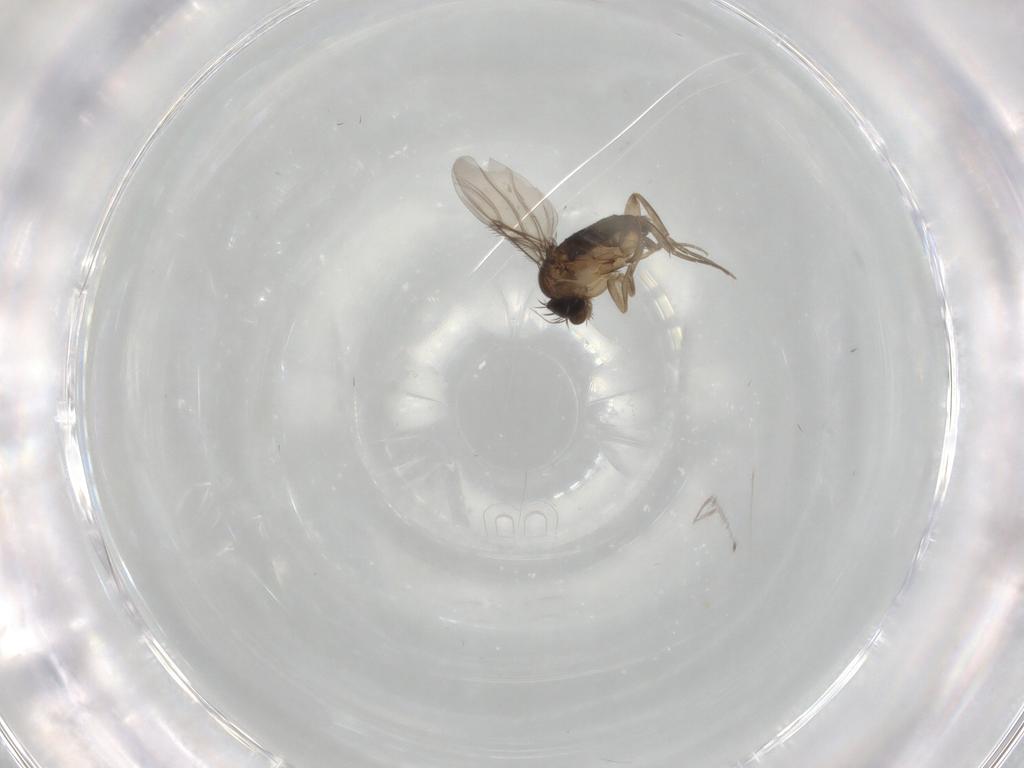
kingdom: Animalia
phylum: Arthropoda
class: Insecta
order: Diptera
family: Phoridae
